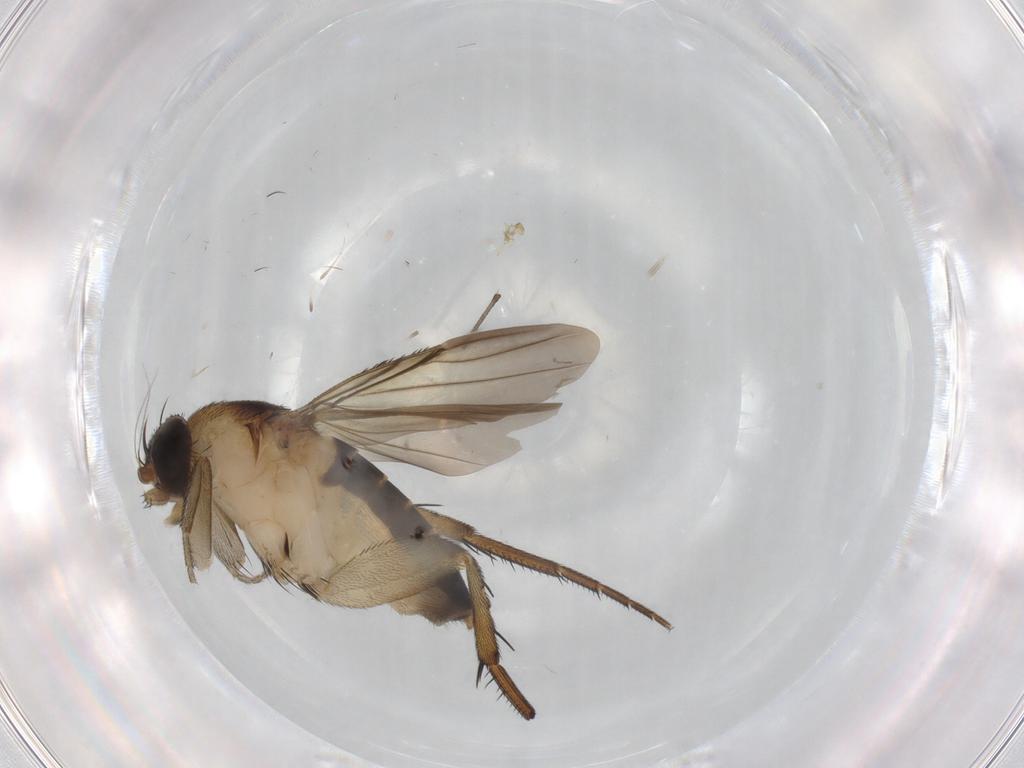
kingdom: Animalia
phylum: Arthropoda
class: Insecta
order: Diptera
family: Phoridae
